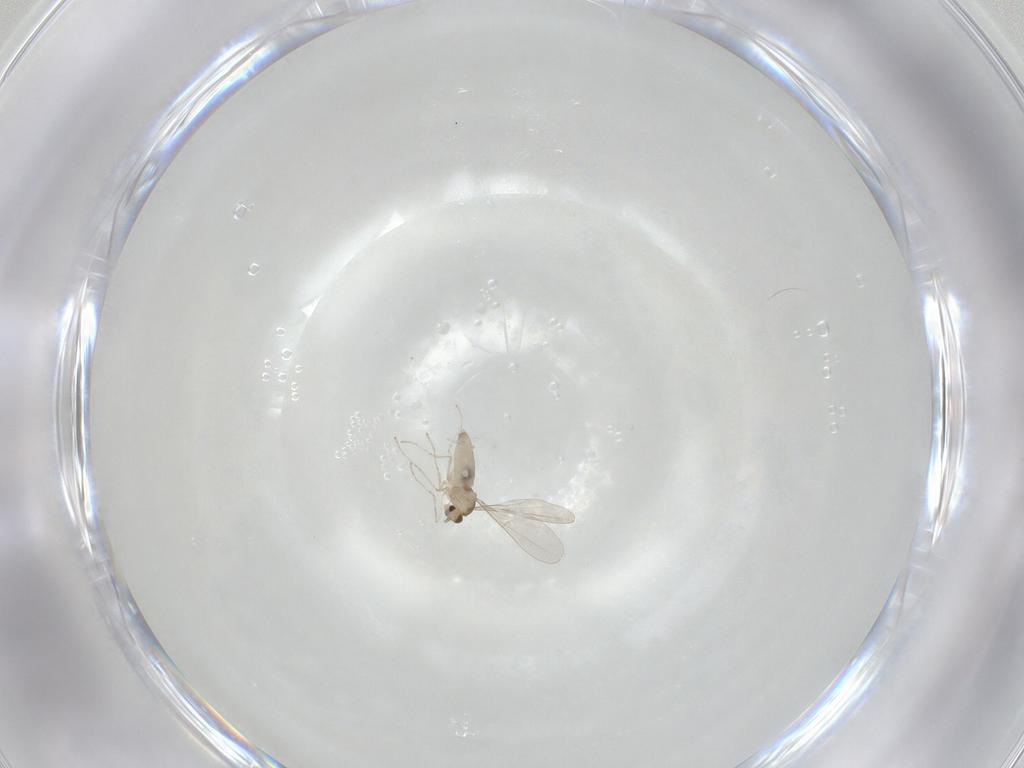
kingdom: Animalia
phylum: Arthropoda
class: Insecta
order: Diptera
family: Cecidomyiidae
